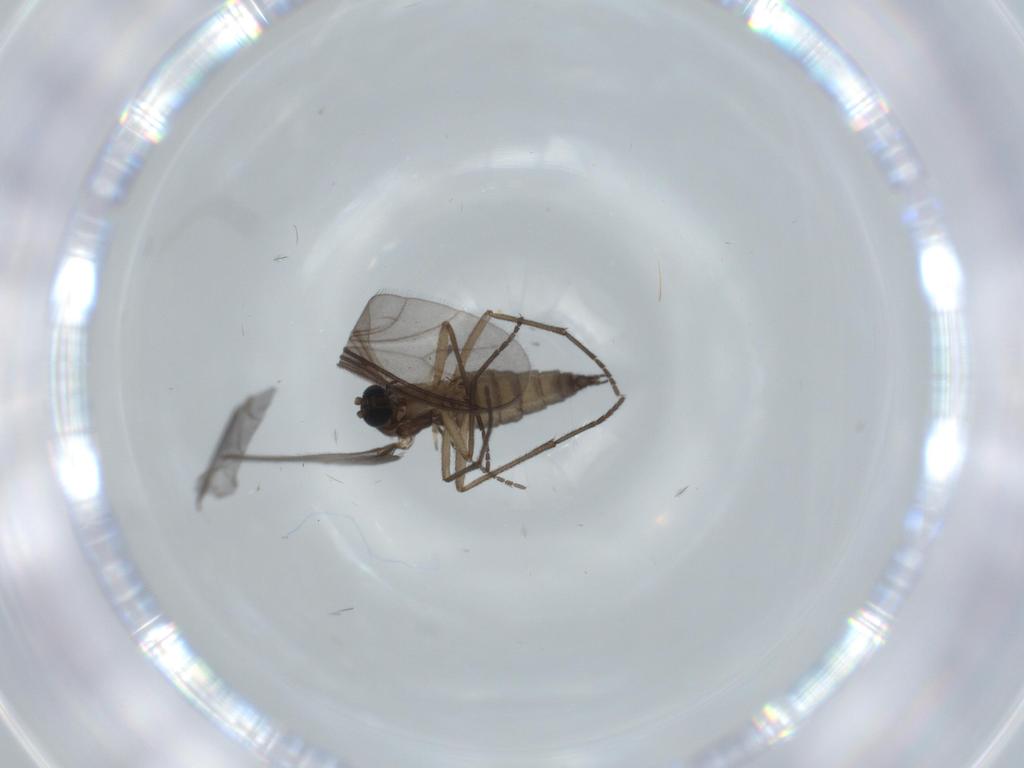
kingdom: Animalia
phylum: Arthropoda
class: Insecta
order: Diptera
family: Sciaridae
